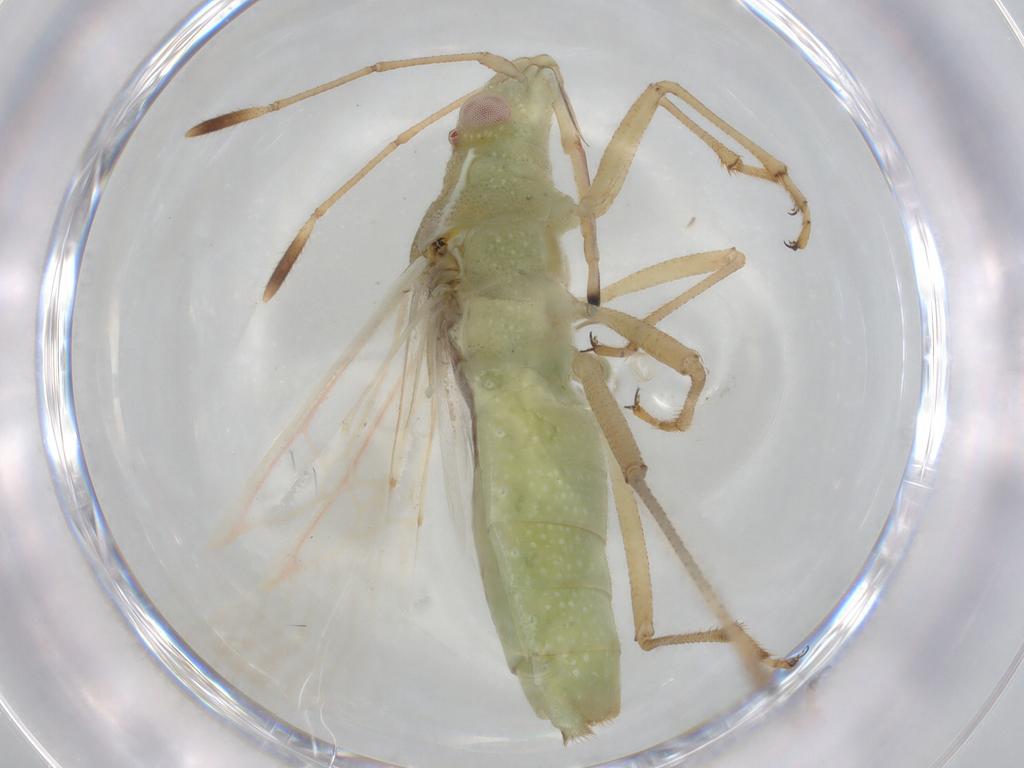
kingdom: Animalia
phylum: Arthropoda
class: Insecta
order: Hemiptera
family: Rhopalidae
